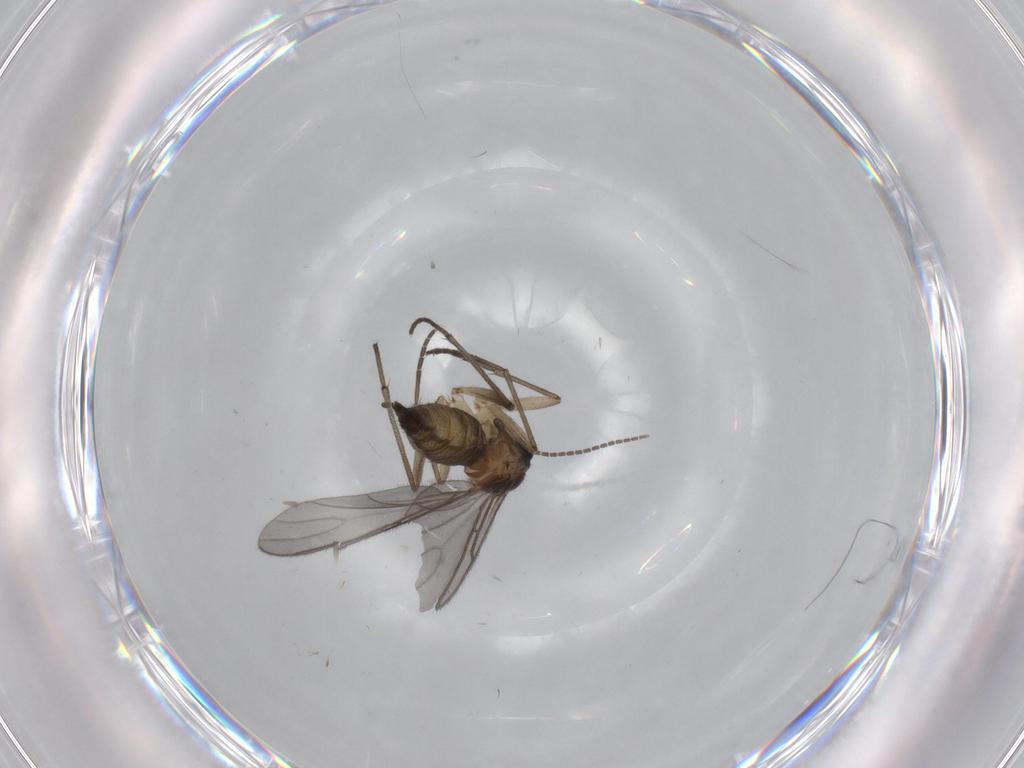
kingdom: Animalia
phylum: Arthropoda
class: Insecta
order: Diptera
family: Sciaridae
